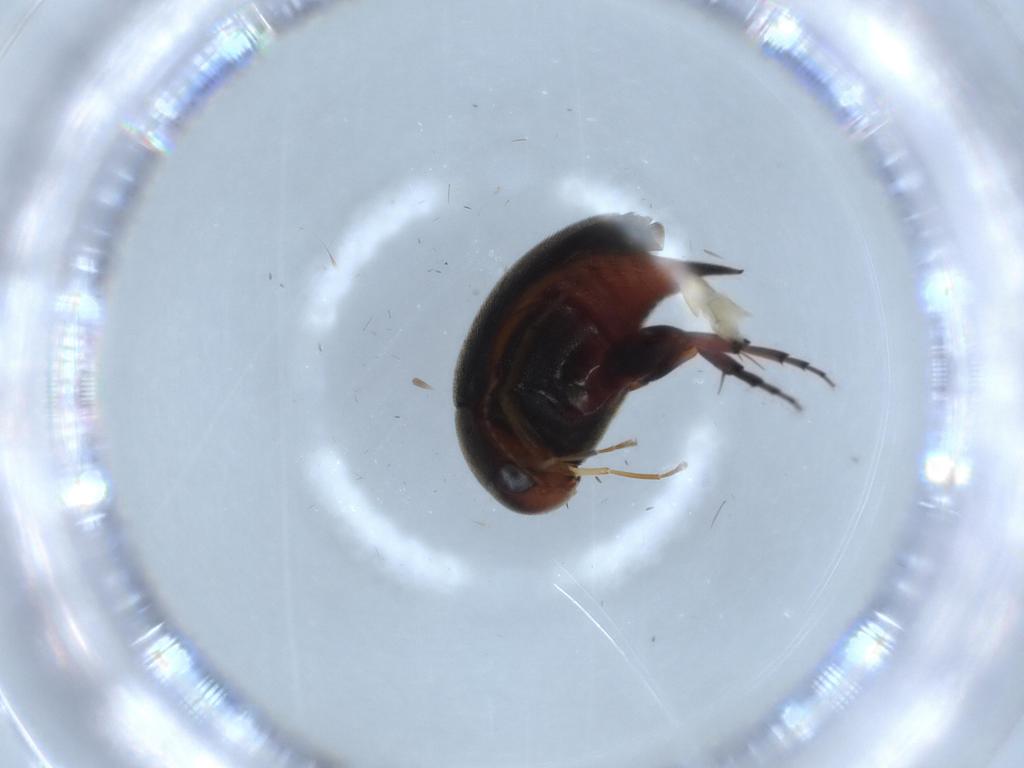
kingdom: Animalia
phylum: Arthropoda
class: Insecta
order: Coleoptera
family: Mordellidae
